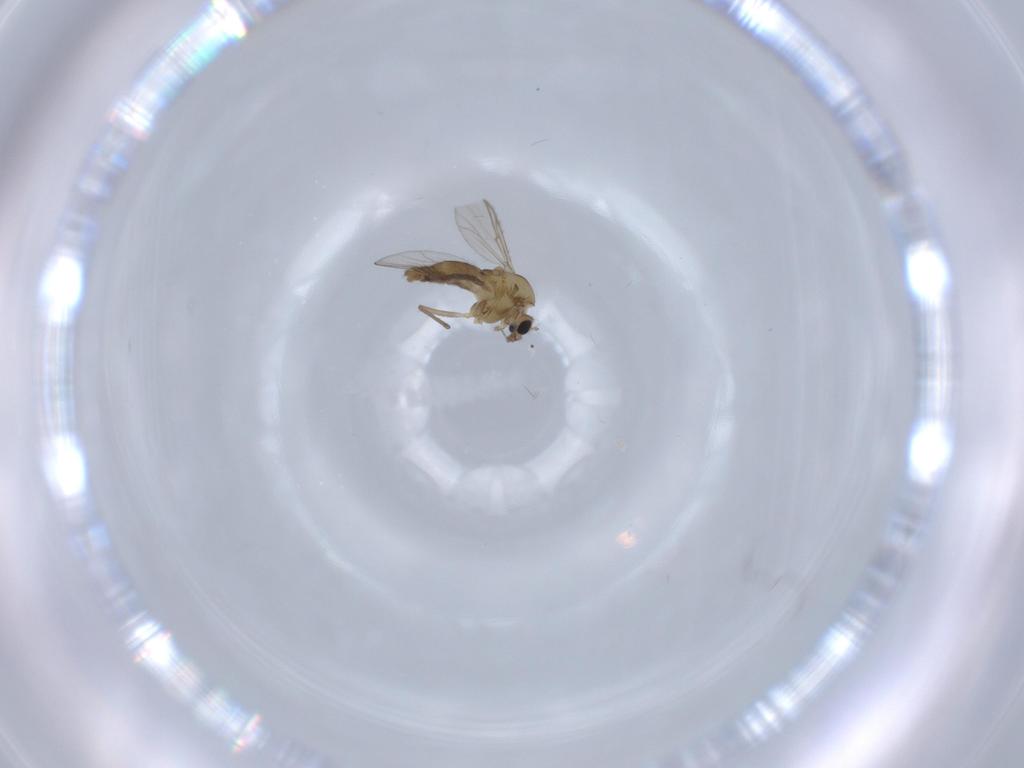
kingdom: Animalia
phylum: Arthropoda
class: Insecta
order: Diptera
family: Chironomidae
